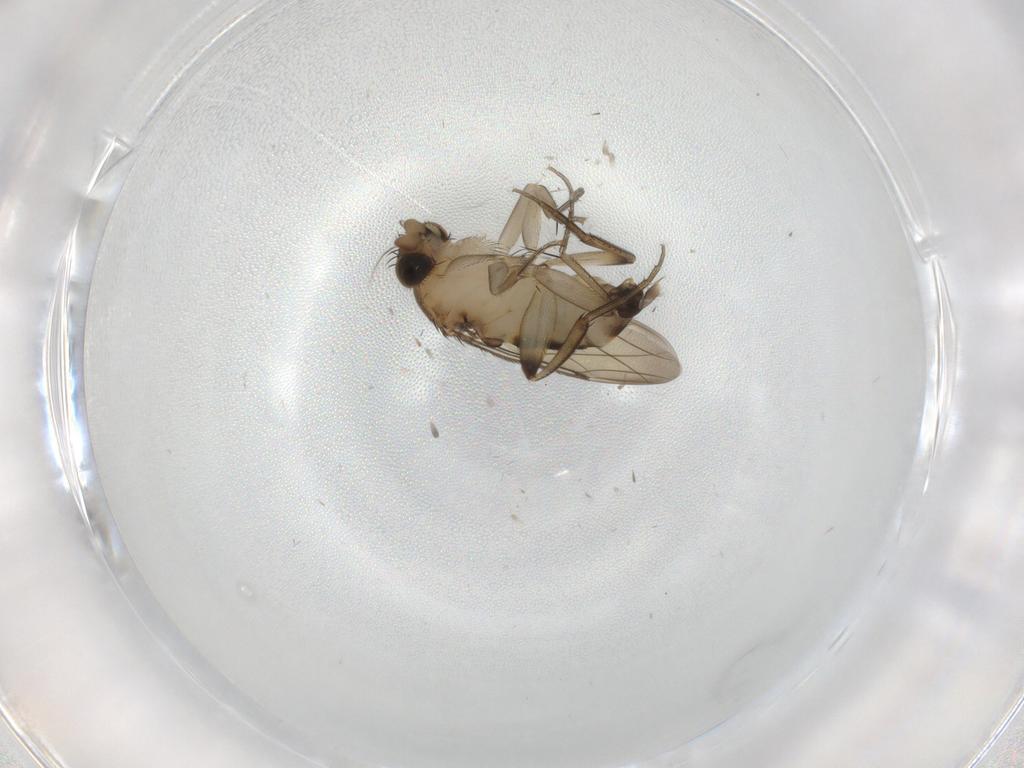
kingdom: Animalia
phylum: Arthropoda
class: Insecta
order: Diptera
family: Sciaridae
